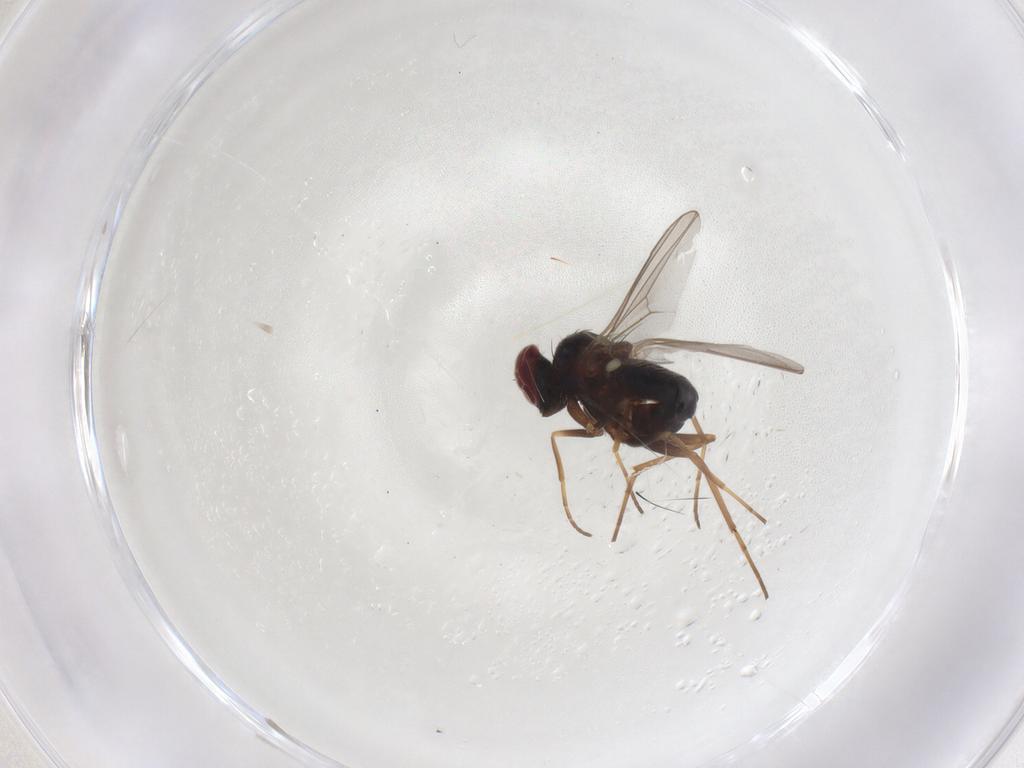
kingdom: Animalia
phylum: Arthropoda
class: Insecta
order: Diptera
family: Dolichopodidae
